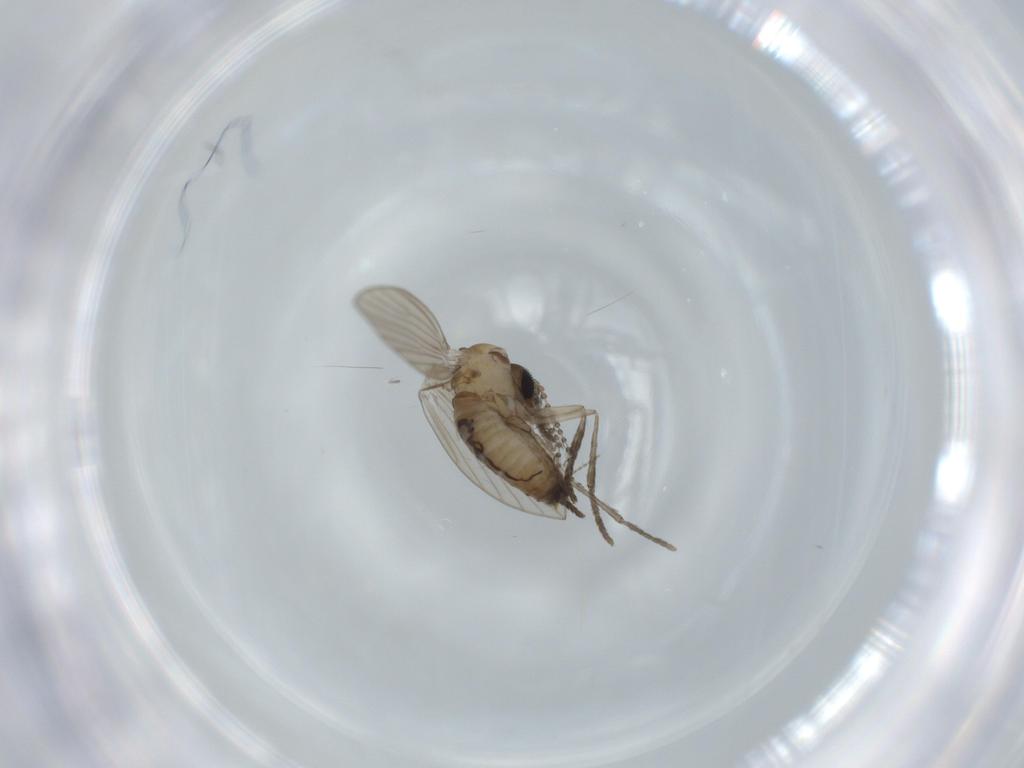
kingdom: Animalia
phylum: Arthropoda
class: Insecta
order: Diptera
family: Psychodidae
